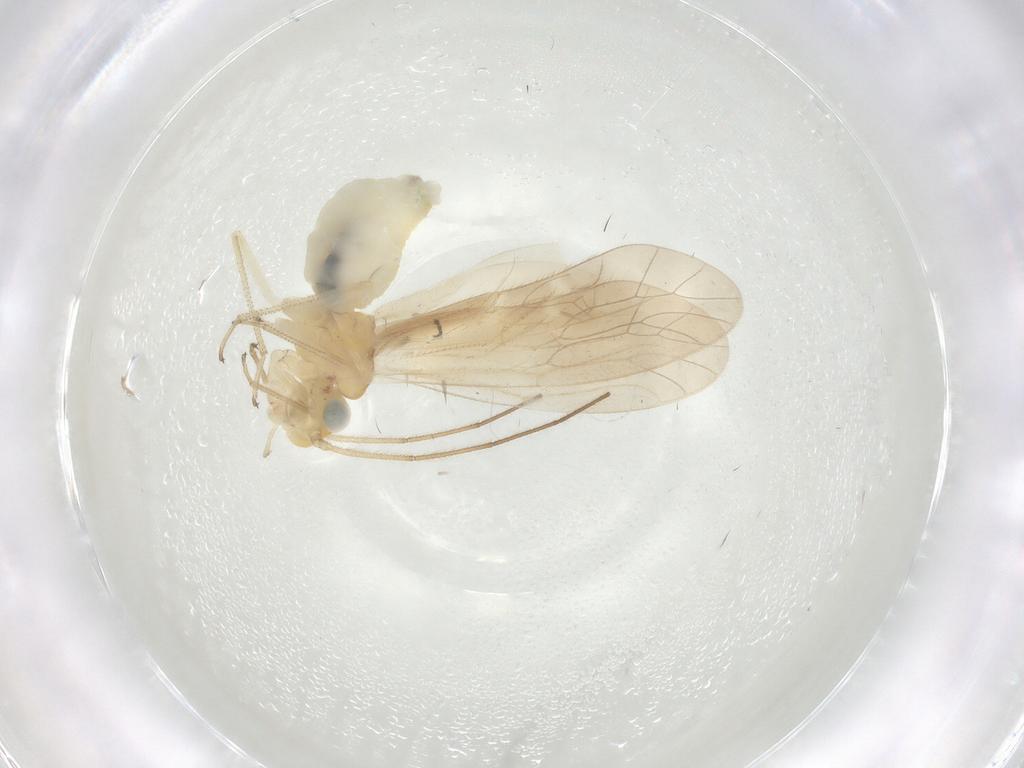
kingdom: Animalia
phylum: Arthropoda
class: Insecta
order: Hymenoptera
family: Bethylidae
